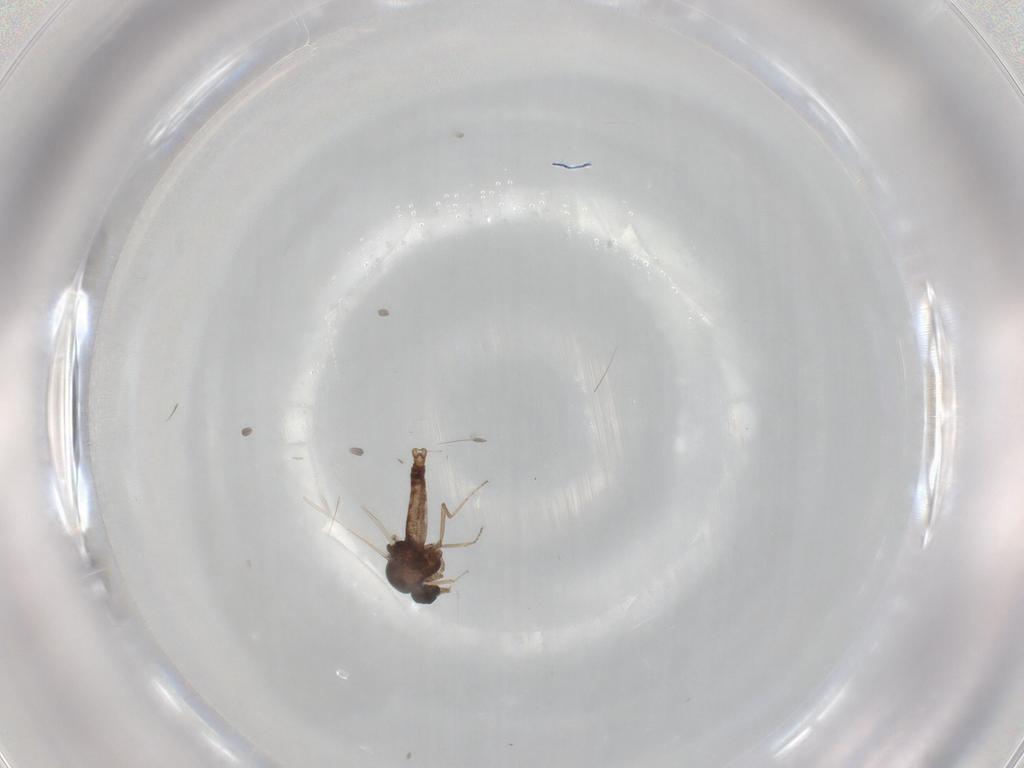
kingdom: Animalia
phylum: Arthropoda
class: Insecta
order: Diptera
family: Ceratopogonidae
